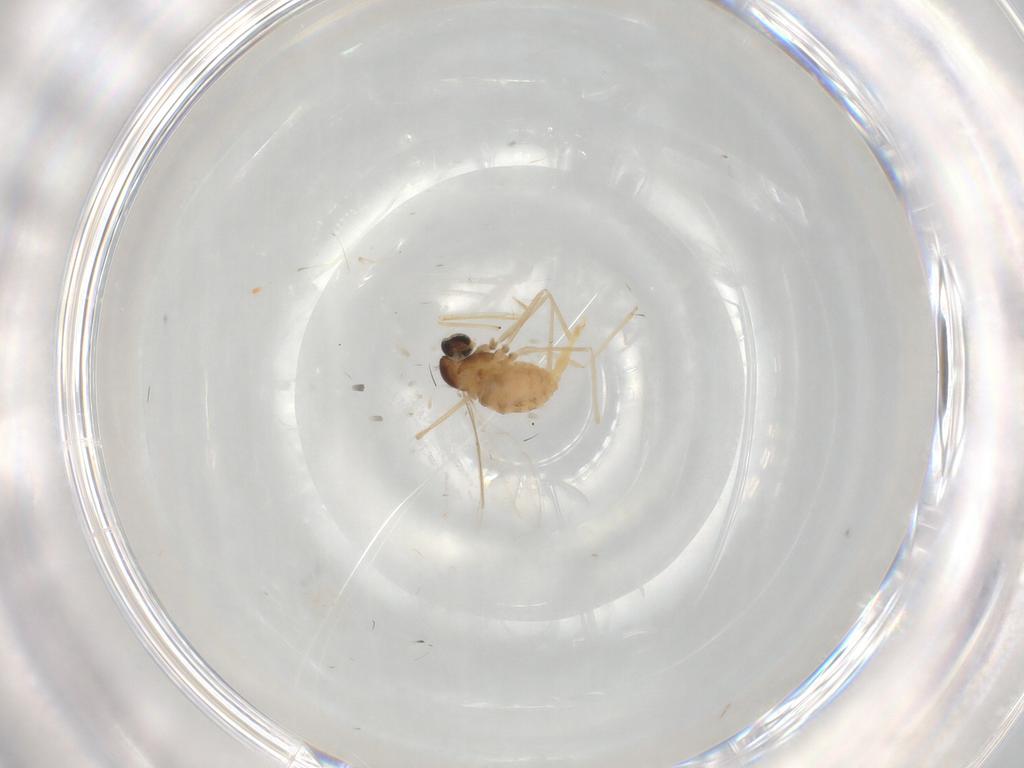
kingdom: Animalia
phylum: Arthropoda
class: Insecta
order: Diptera
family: Cecidomyiidae
